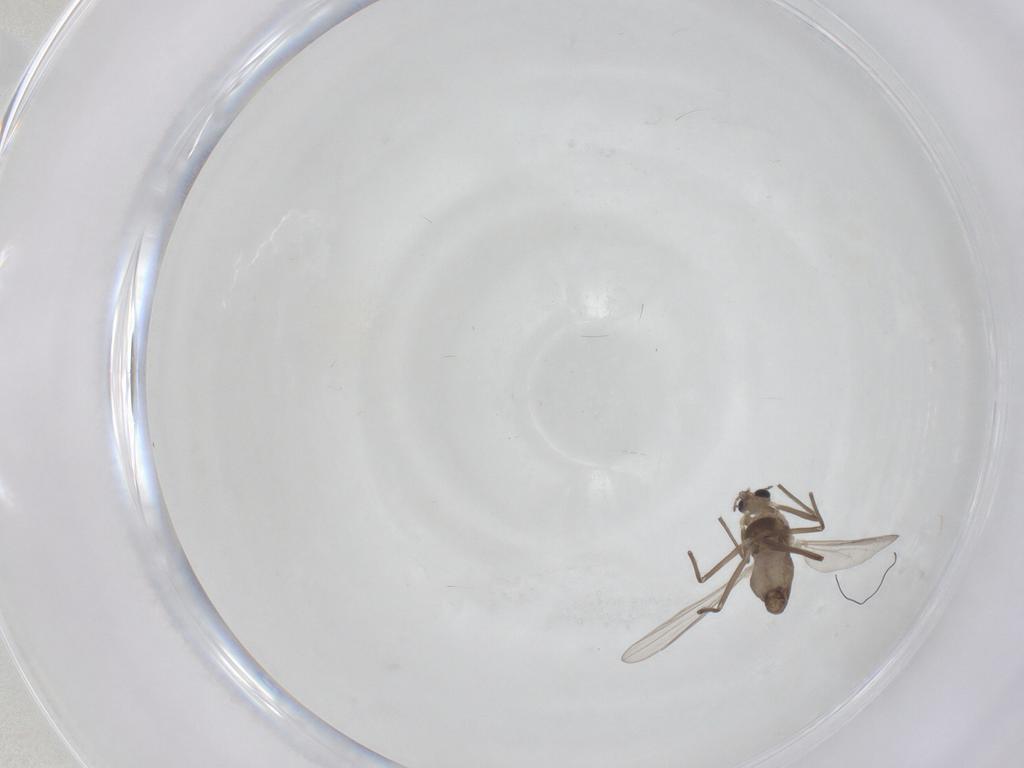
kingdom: Animalia
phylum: Arthropoda
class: Insecta
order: Diptera
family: Chironomidae
